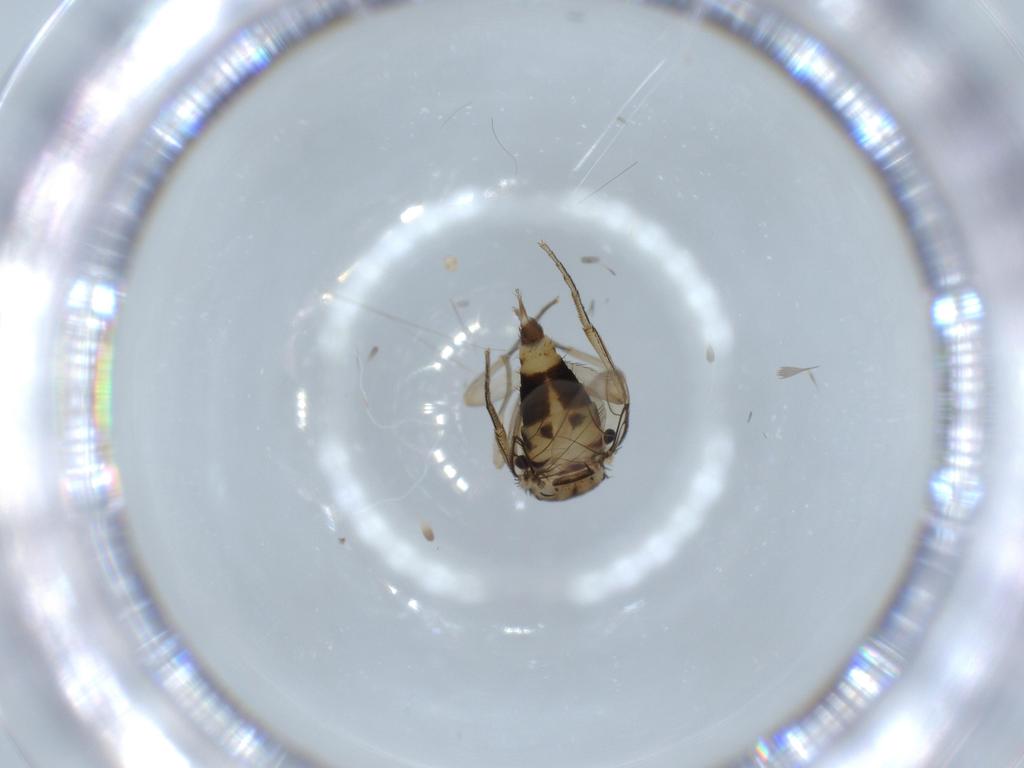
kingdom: Animalia
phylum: Arthropoda
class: Insecta
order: Diptera
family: Phoridae
